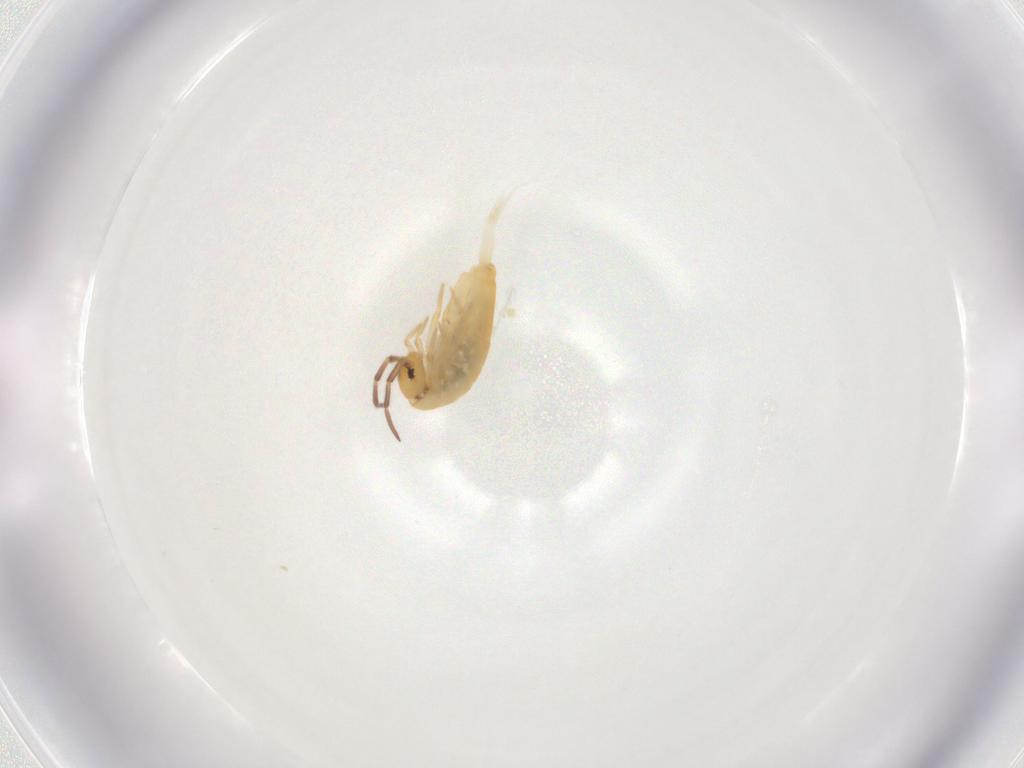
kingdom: Animalia
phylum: Arthropoda
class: Collembola
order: Entomobryomorpha
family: Entomobryidae
